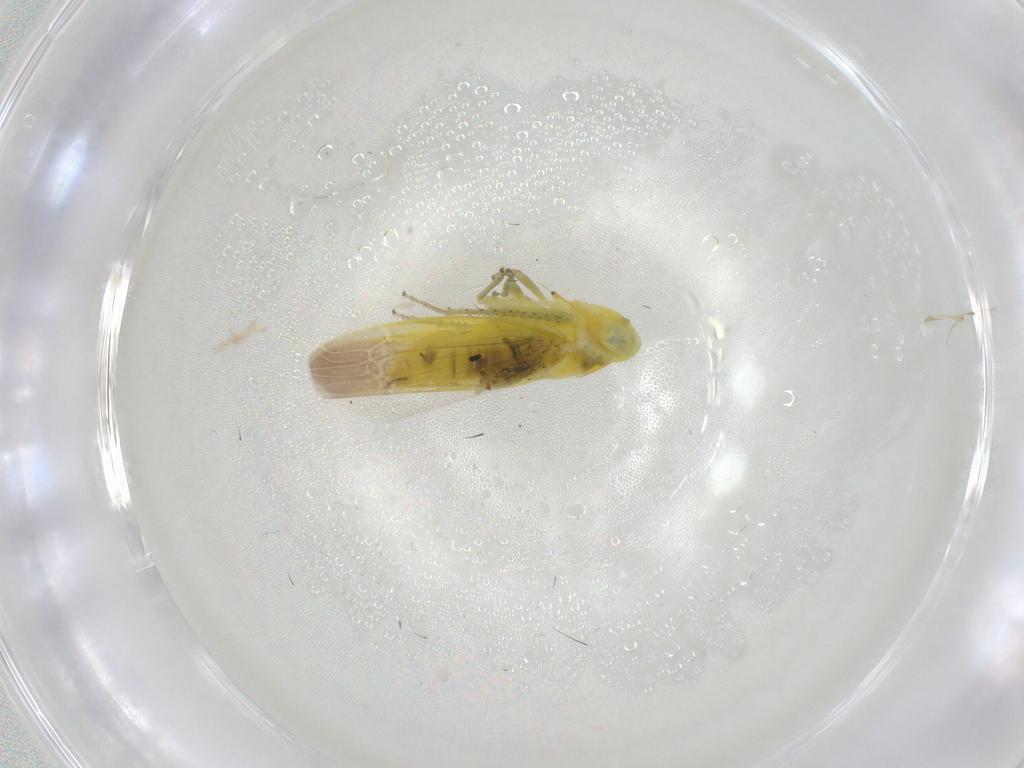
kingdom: Animalia
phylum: Arthropoda
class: Insecta
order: Hemiptera
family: Cicadellidae
